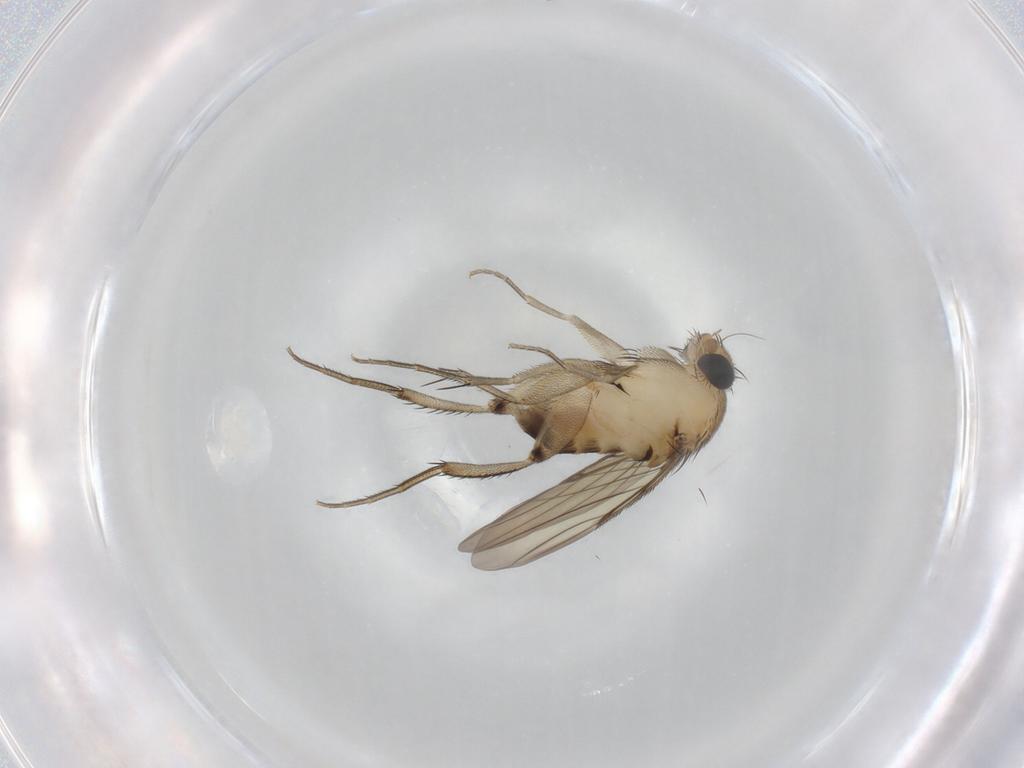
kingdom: Animalia
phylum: Arthropoda
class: Insecta
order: Diptera
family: Phoridae
